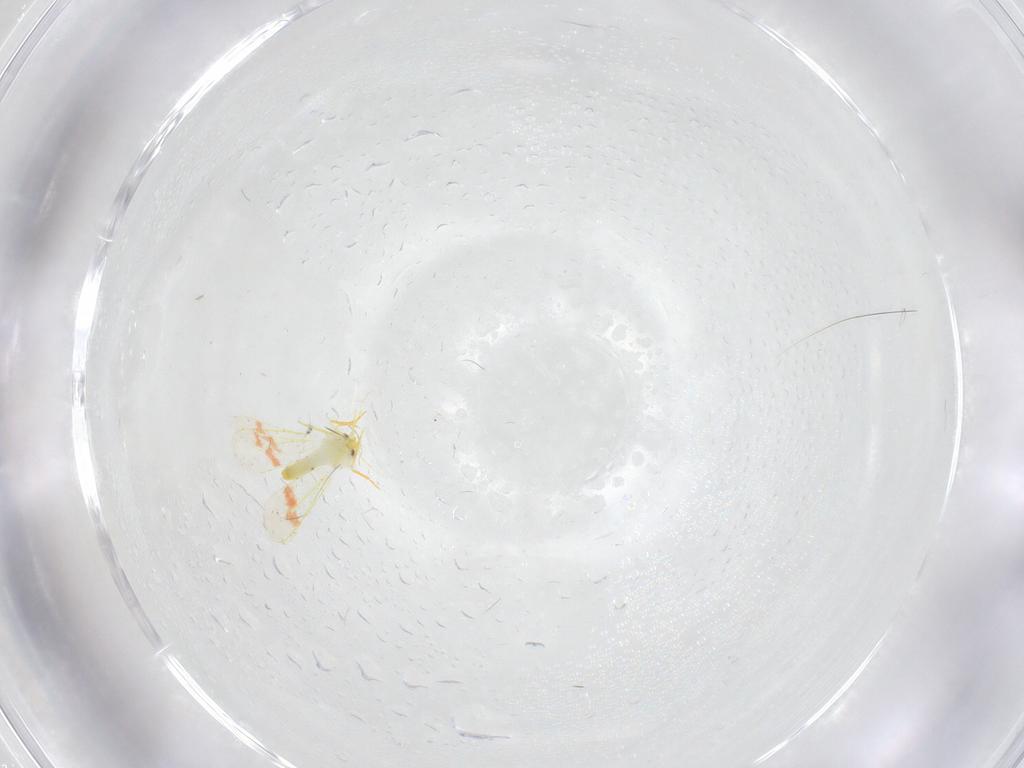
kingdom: Animalia
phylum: Arthropoda
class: Insecta
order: Hemiptera
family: Aleyrodidae
